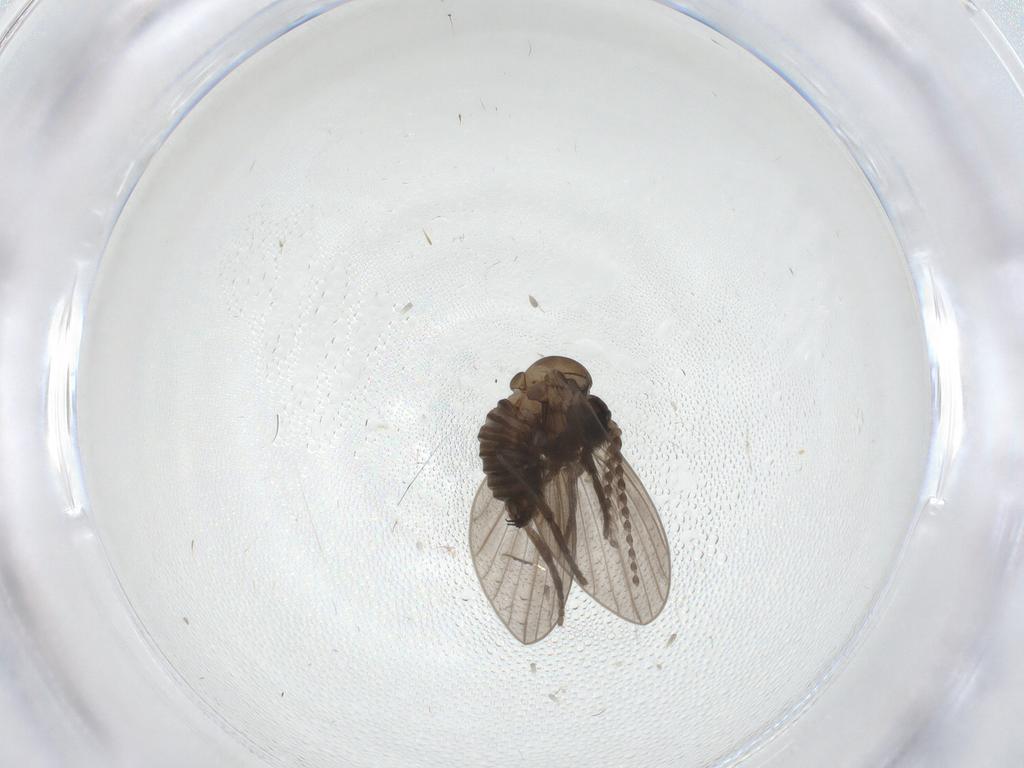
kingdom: Animalia
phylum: Arthropoda
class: Insecta
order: Diptera
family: Psychodidae
